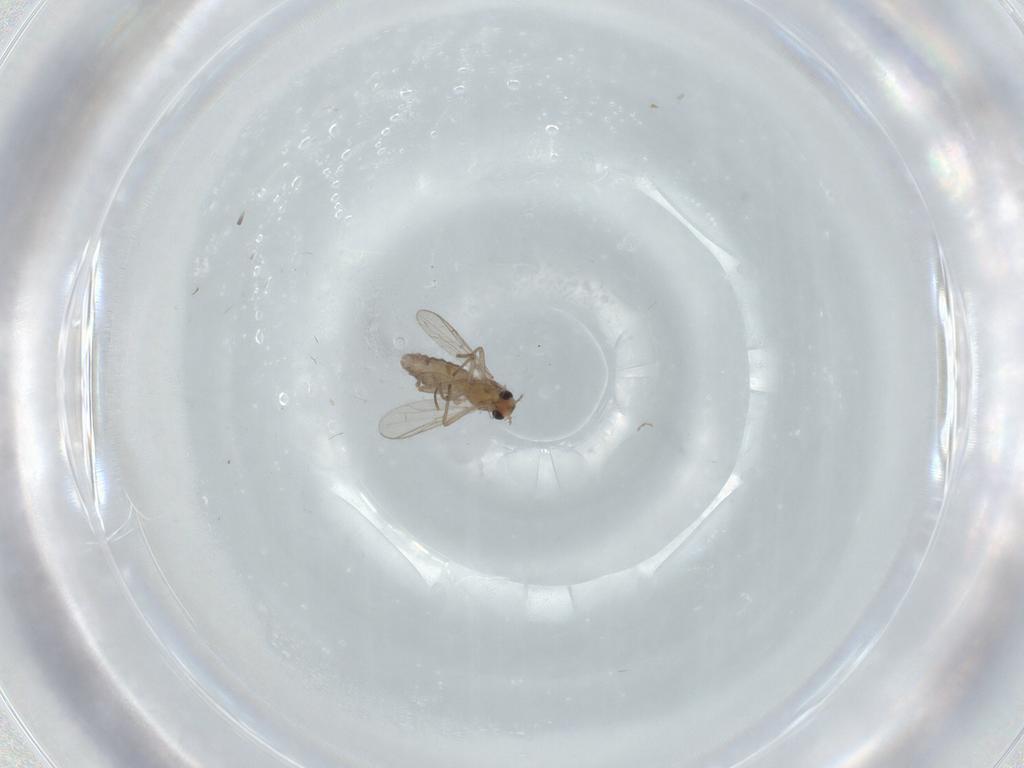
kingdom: Animalia
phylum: Arthropoda
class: Insecta
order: Diptera
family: Chironomidae
